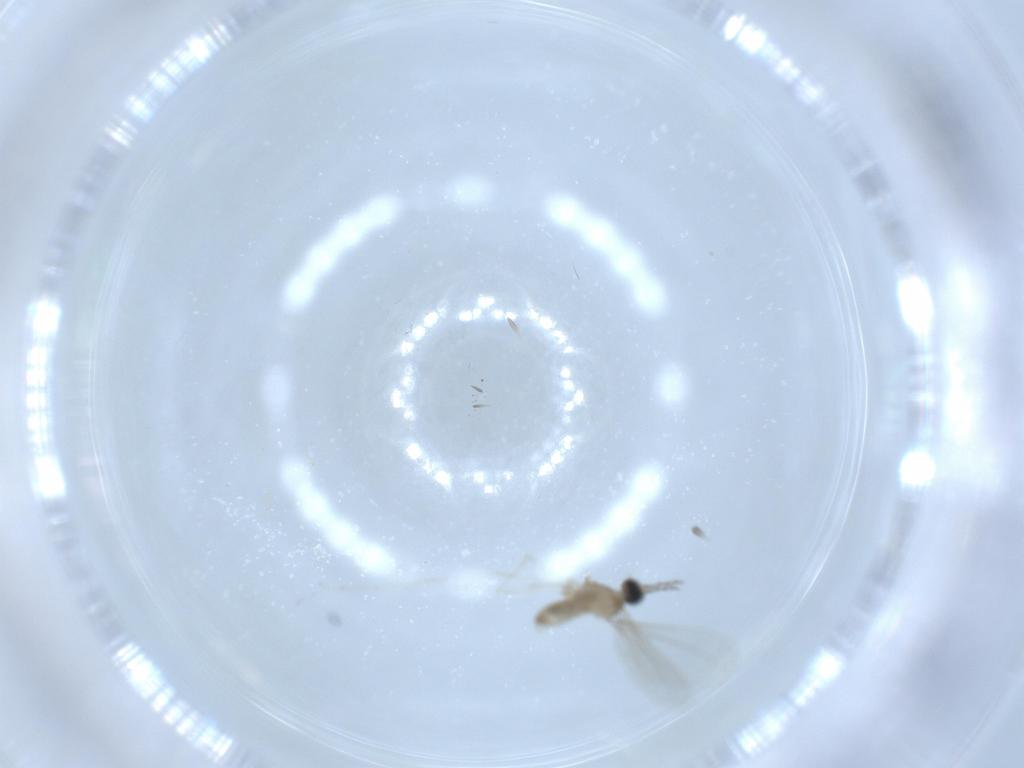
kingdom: Animalia
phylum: Arthropoda
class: Insecta
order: Diptera
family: Cecidomyiidae
